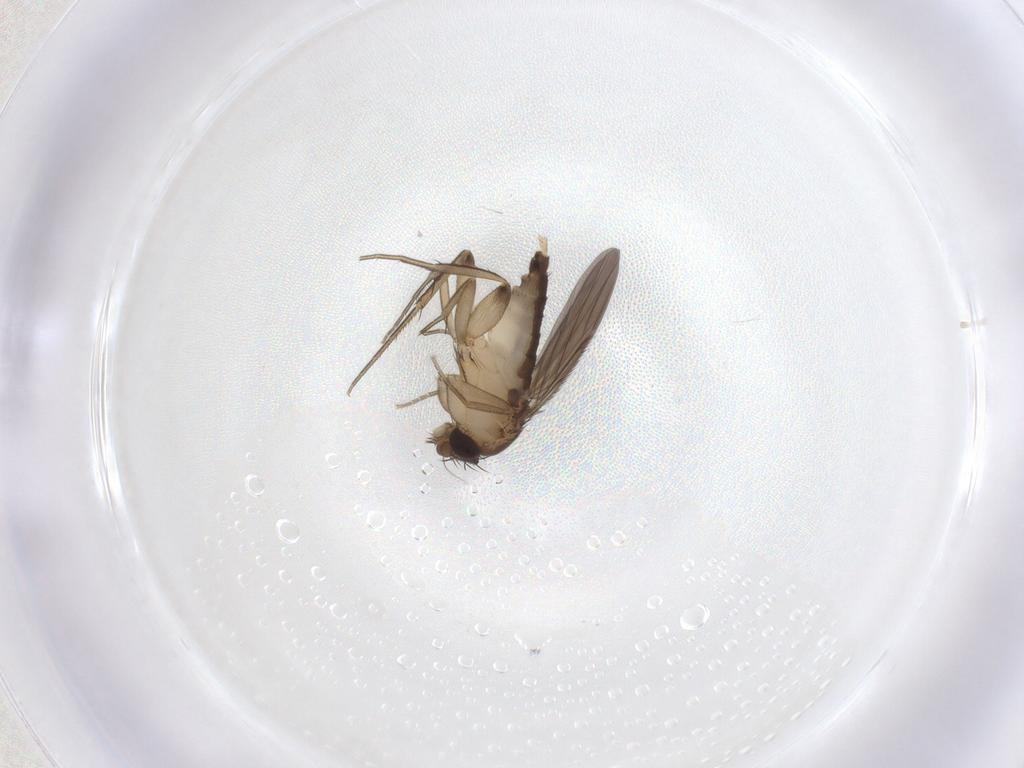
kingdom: Animalia
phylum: Arthropoda
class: Insecta
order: Diptera
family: Phoridae
